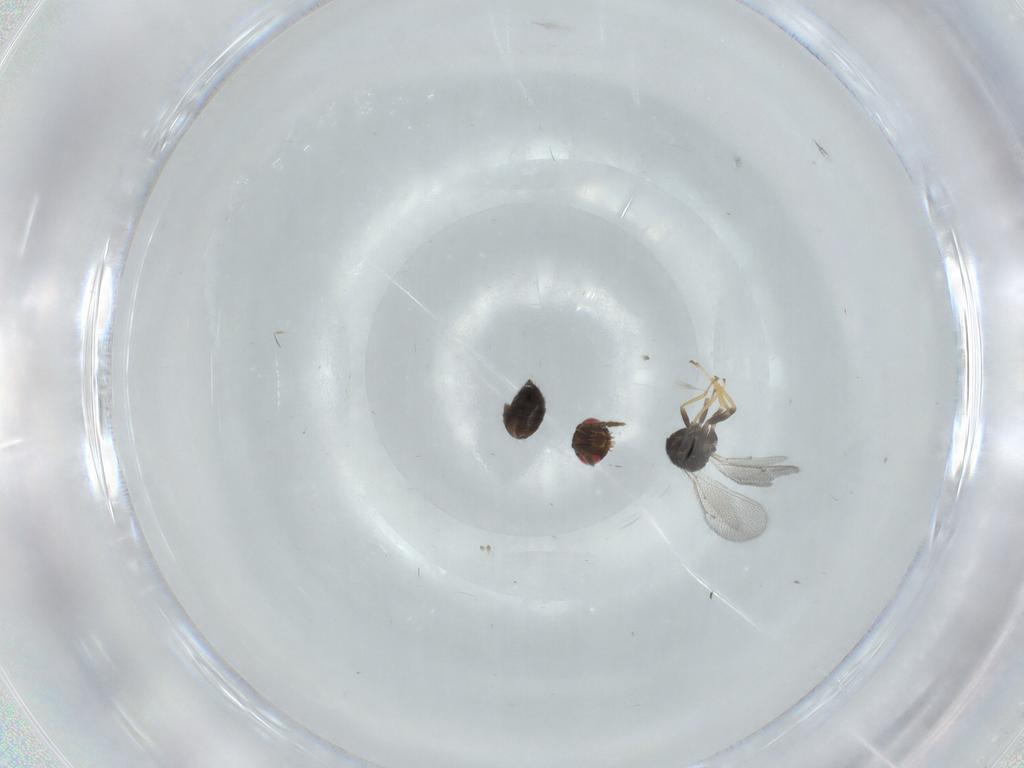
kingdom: Animalia
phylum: Arthropoda
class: Insecta
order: Hymenoptera
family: Eulophidae
